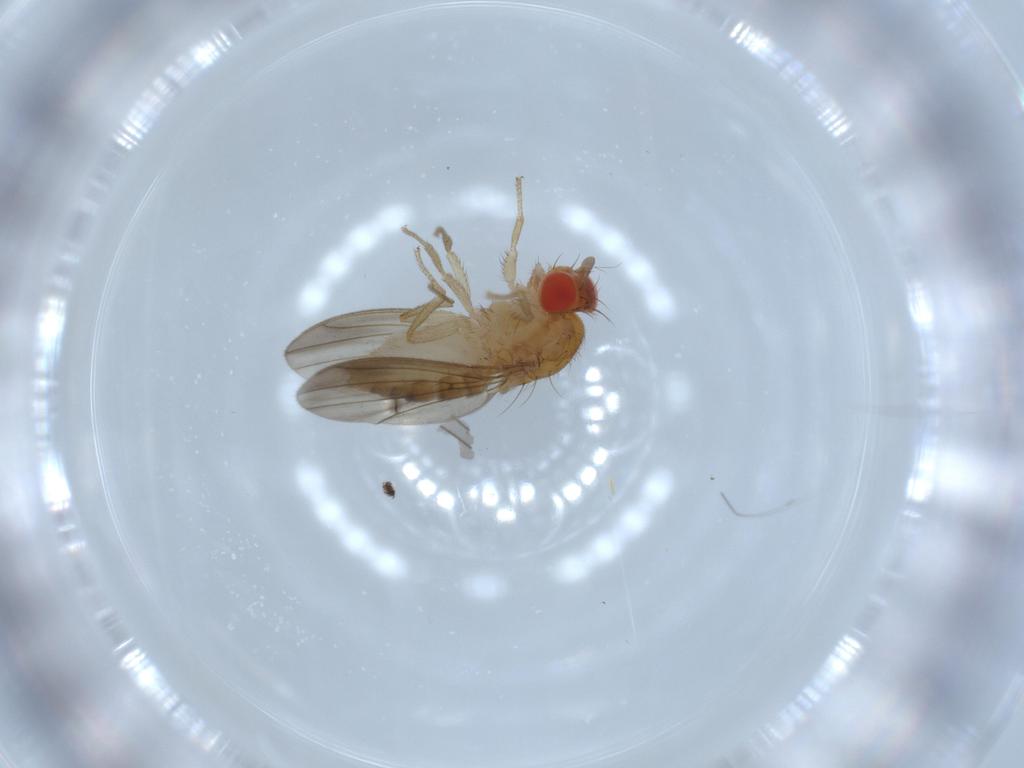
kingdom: Animalia
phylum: Arthropoda
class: Insecta
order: Diptera
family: Drosophilidae
